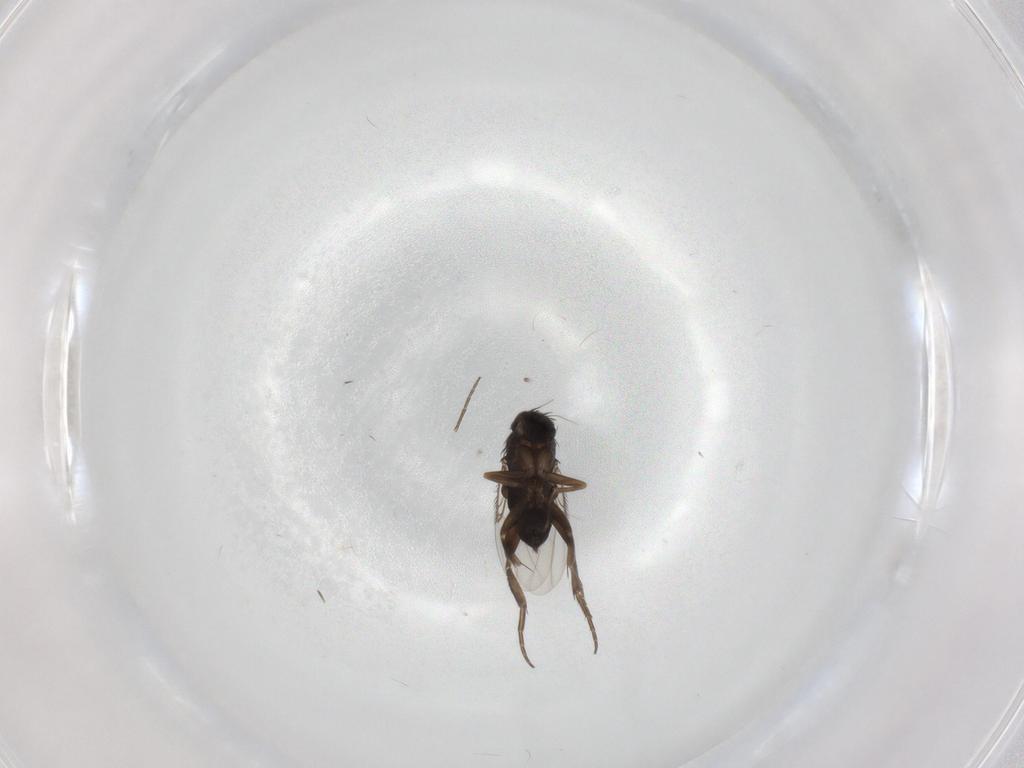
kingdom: Animalia
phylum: Arthropoda
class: Insecta
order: Diptera
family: Phoridae
